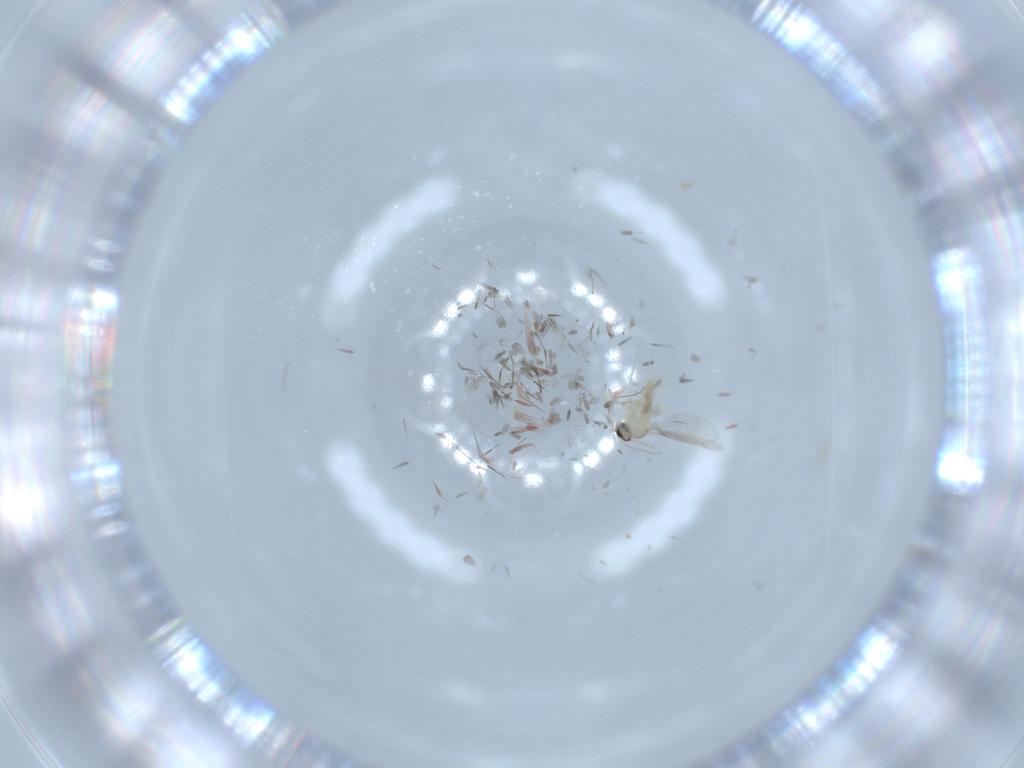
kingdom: Animalia
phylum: Arthropoda
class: Insecta
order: Diptera
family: Cecidomyiidae
